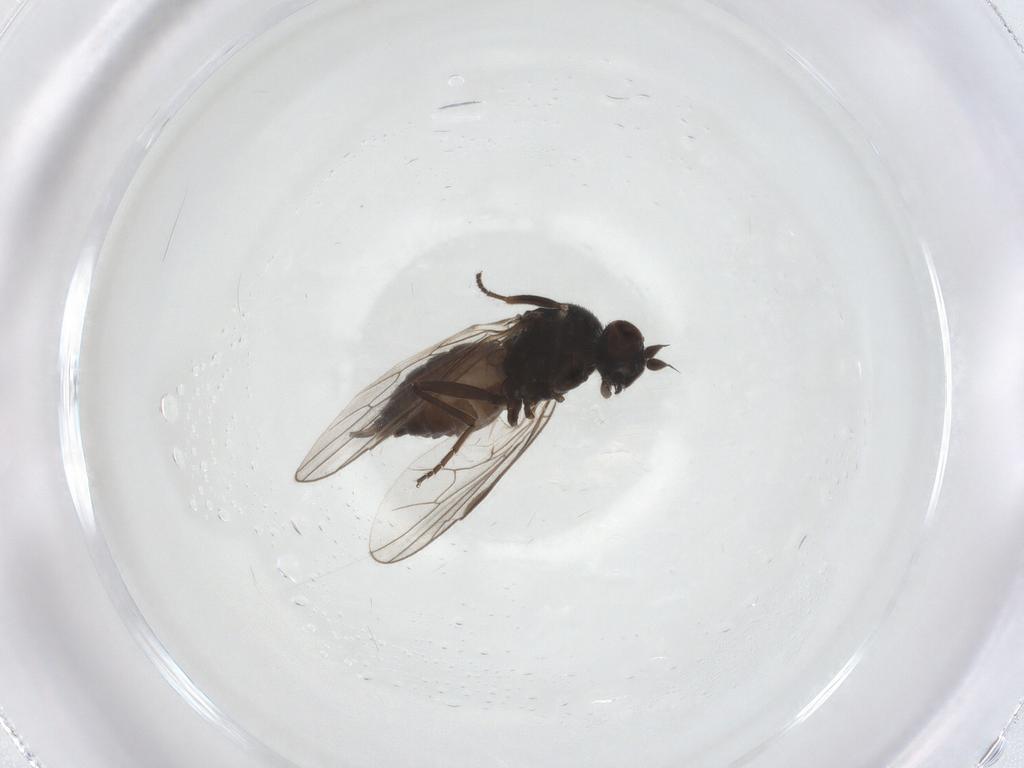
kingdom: Animalia
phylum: Arthropoda
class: Insecta
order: Diptera
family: Hybotidae
